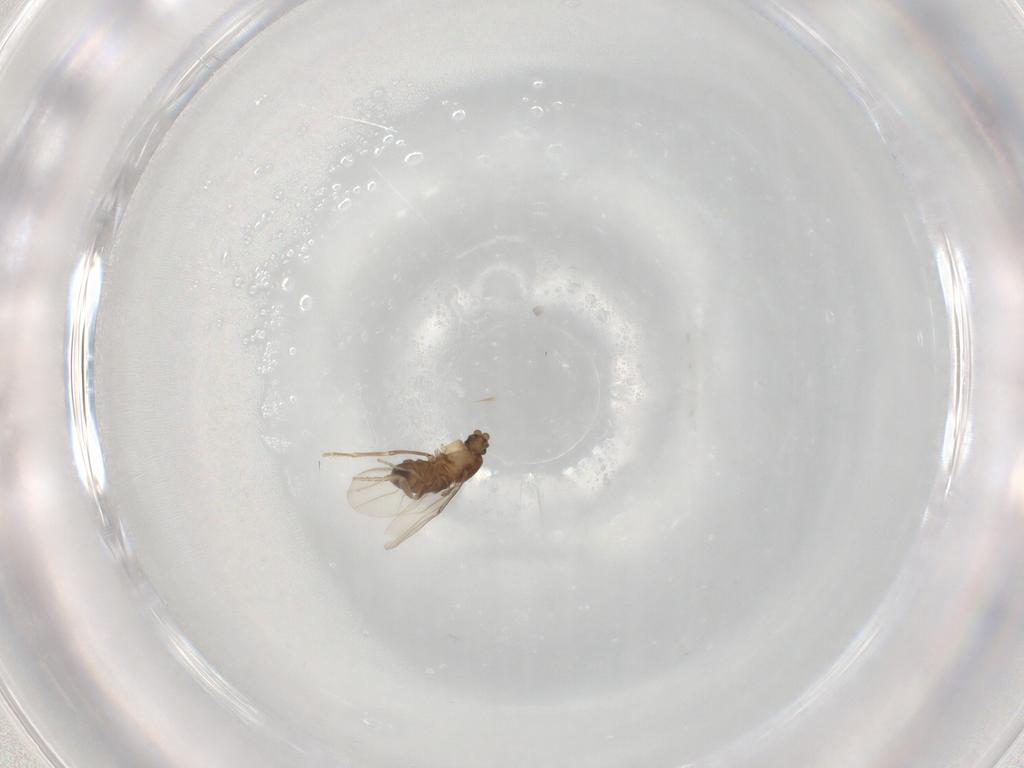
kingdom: Animalia
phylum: Arthropoda
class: Insecta
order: Diptera
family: Phoridae
